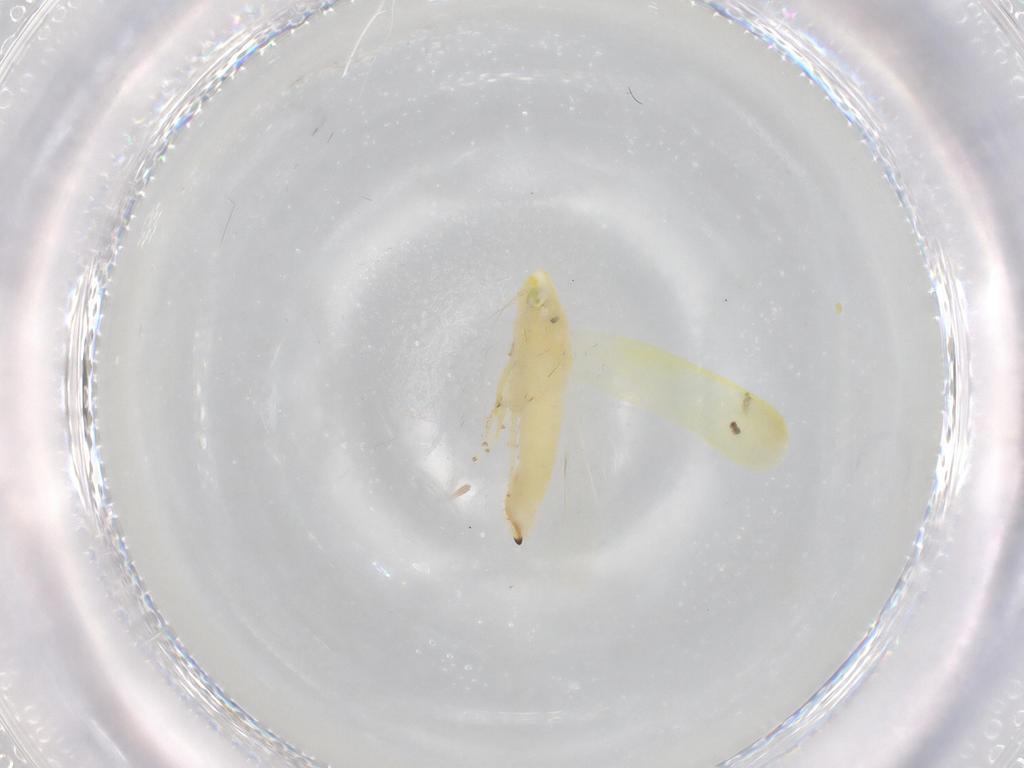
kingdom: Animalia
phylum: Arthropoda
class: Insecta
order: Hemiptera
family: Cicadellidae
